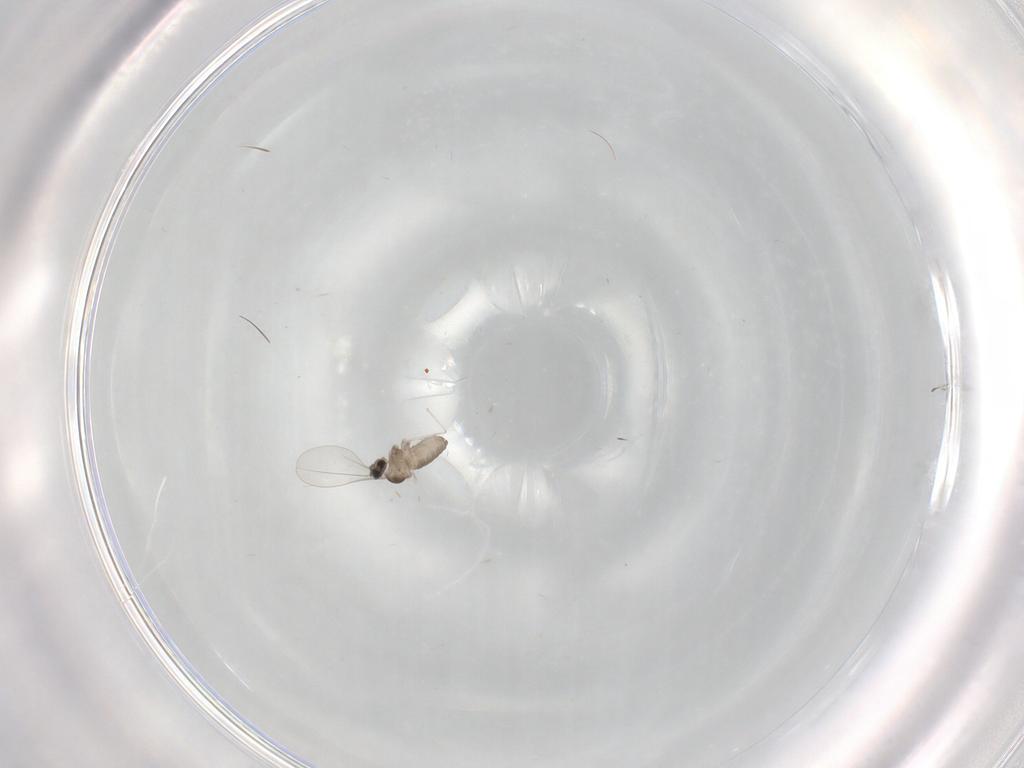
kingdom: Animalia
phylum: Arthropoda
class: Insecta
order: Diptera
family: Cecidomyiidae
